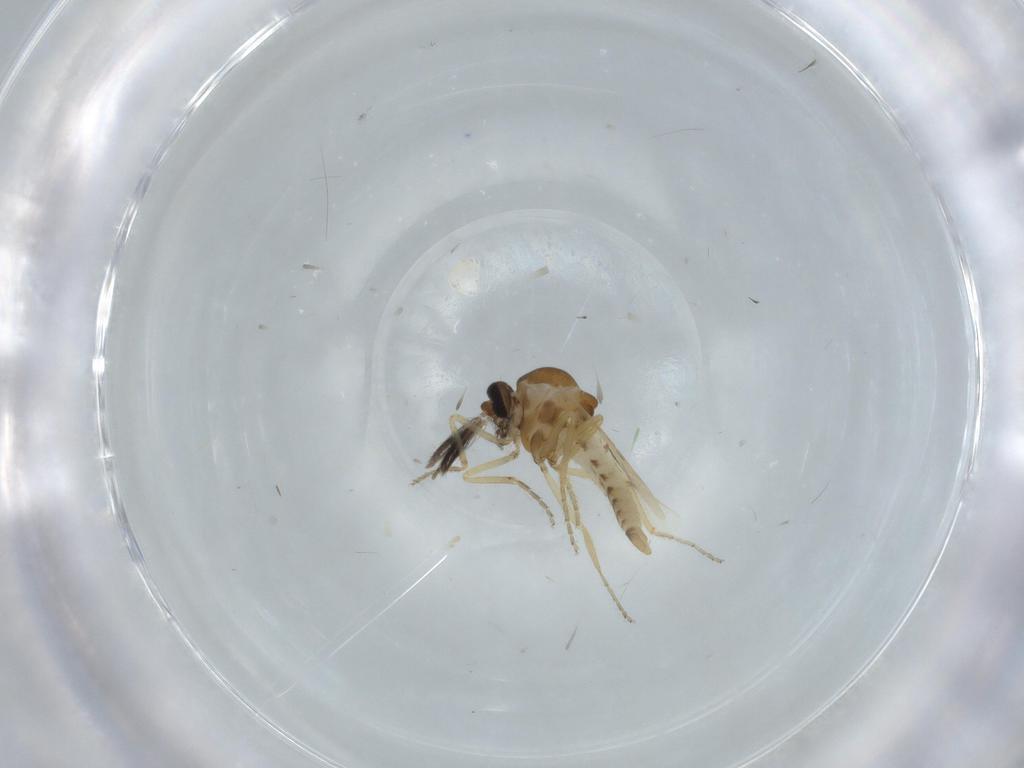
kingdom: Animalia
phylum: Arthropoda
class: Insecta
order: Diptera
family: Ceratopogonidae
